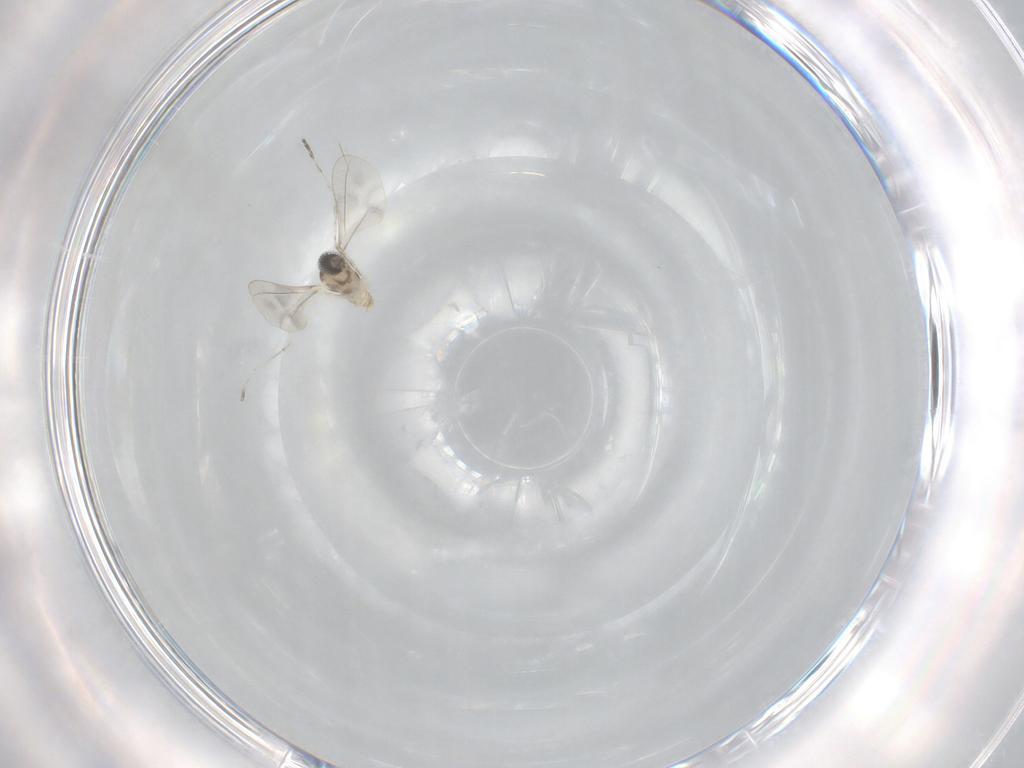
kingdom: Animalia
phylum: Arthropoda
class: Insecta
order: Diptera
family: Cecidomyiidae
